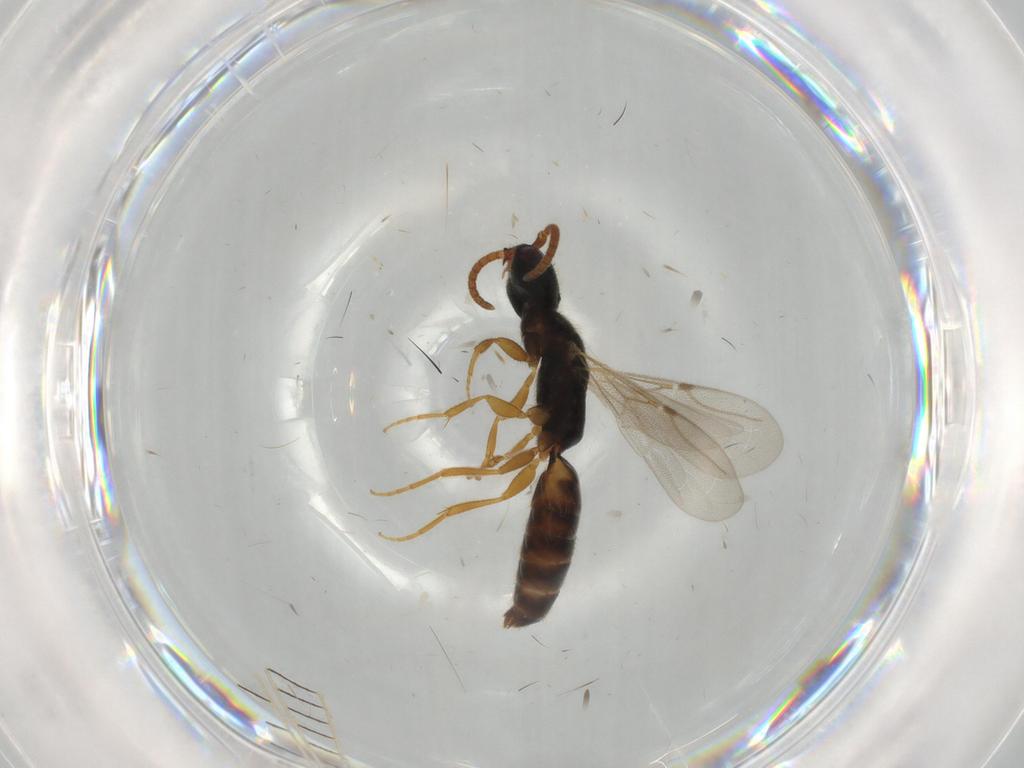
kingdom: Animalia
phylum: Arthropoda
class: Insecta
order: Hymenoptera
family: Bethylidae
